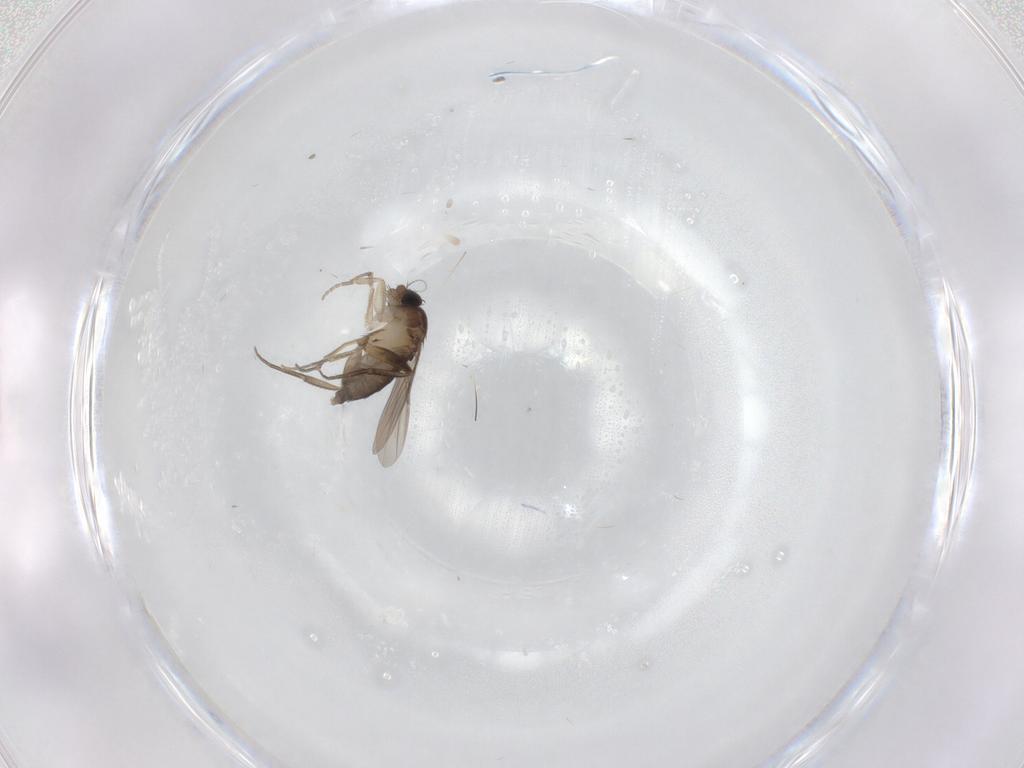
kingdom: Animalia
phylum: Arthropoda
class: Insecta
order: Diptera
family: Phoridae
